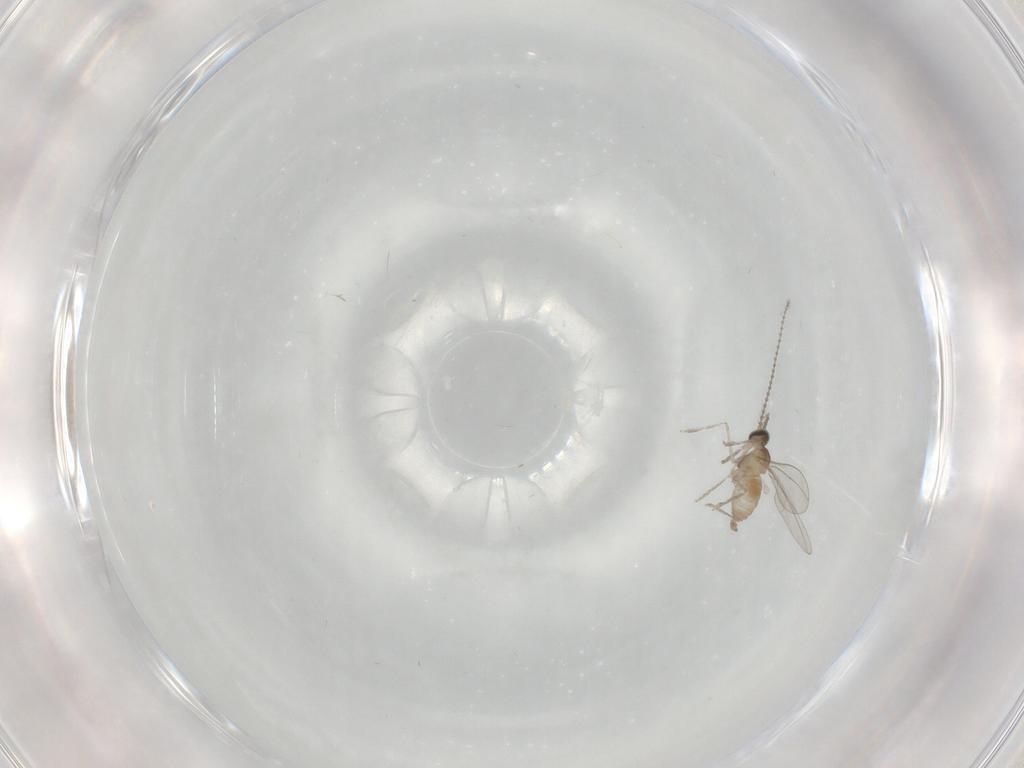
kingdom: Animalia
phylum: Arthropoda
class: Insecta
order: Diptera
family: Cecidomyiidae
